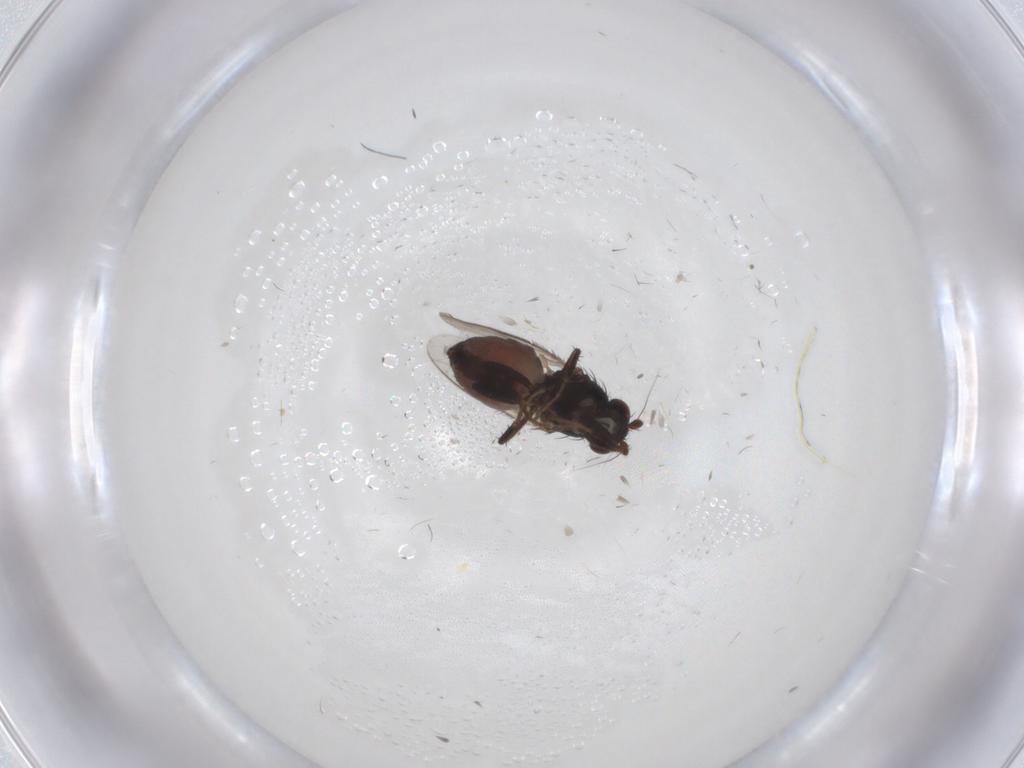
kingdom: Animalia
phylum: Arthropoda
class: Insecta
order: Diptera
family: Sphaeroceridae
